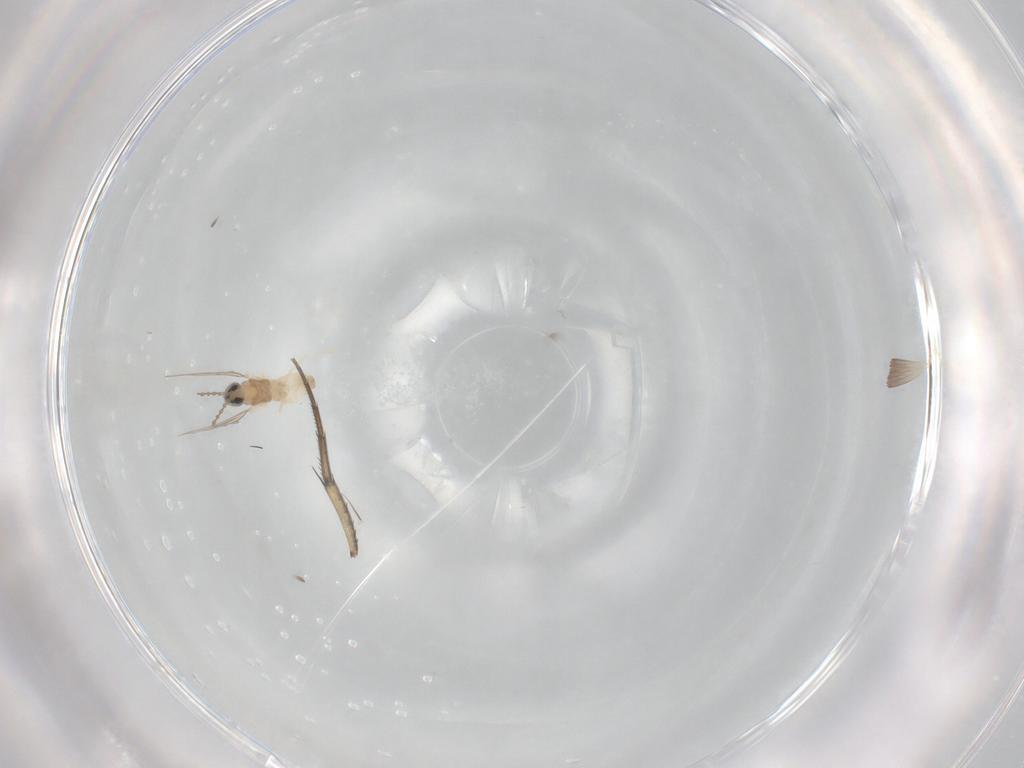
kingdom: Animalia
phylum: Arthropoda
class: Insecta
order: Diptera
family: Cecidomyiidae
